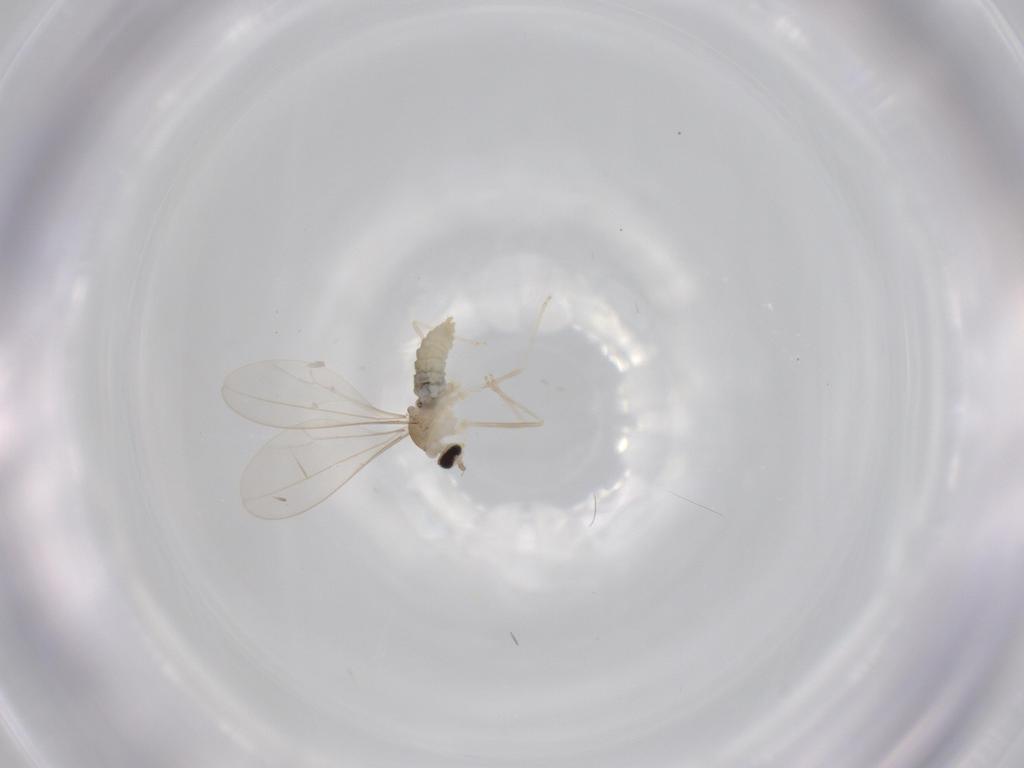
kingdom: Animalia
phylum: Arthropoda
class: Insecta
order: Diptera
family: Cecidomyiidae
